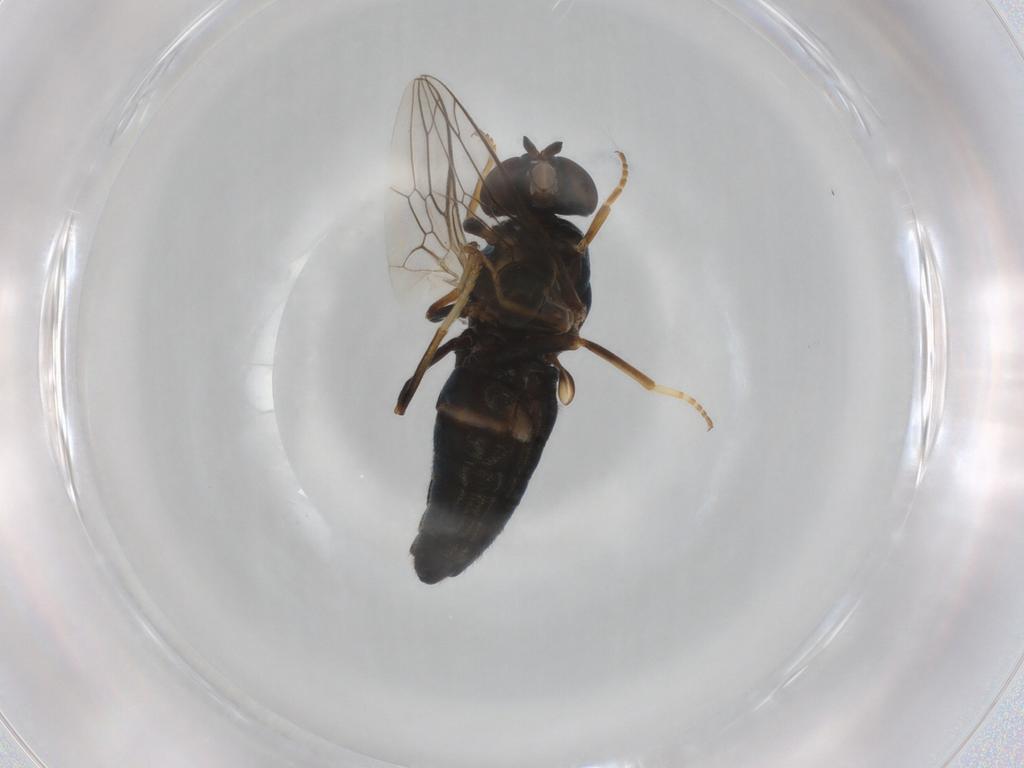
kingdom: Animalia
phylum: Arthropoda
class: Insecta
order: Diptera
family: Scenopinidae
